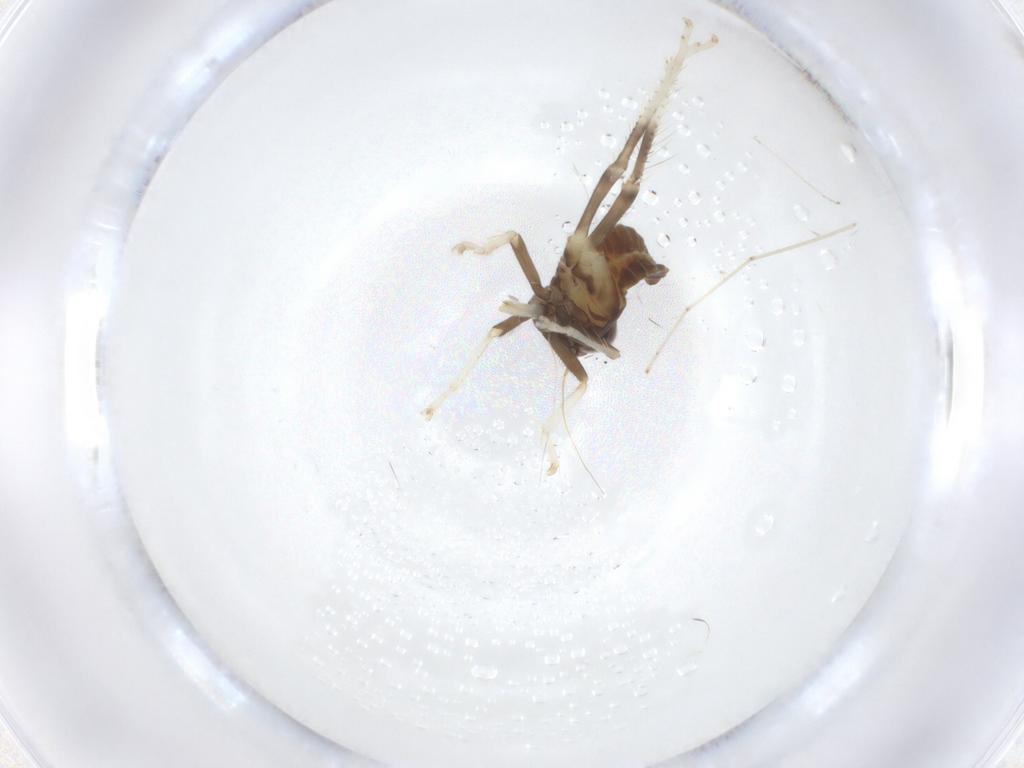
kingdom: Animalia
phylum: Arthropoda
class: Insecta
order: Hemiptera
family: Cicadellidae
